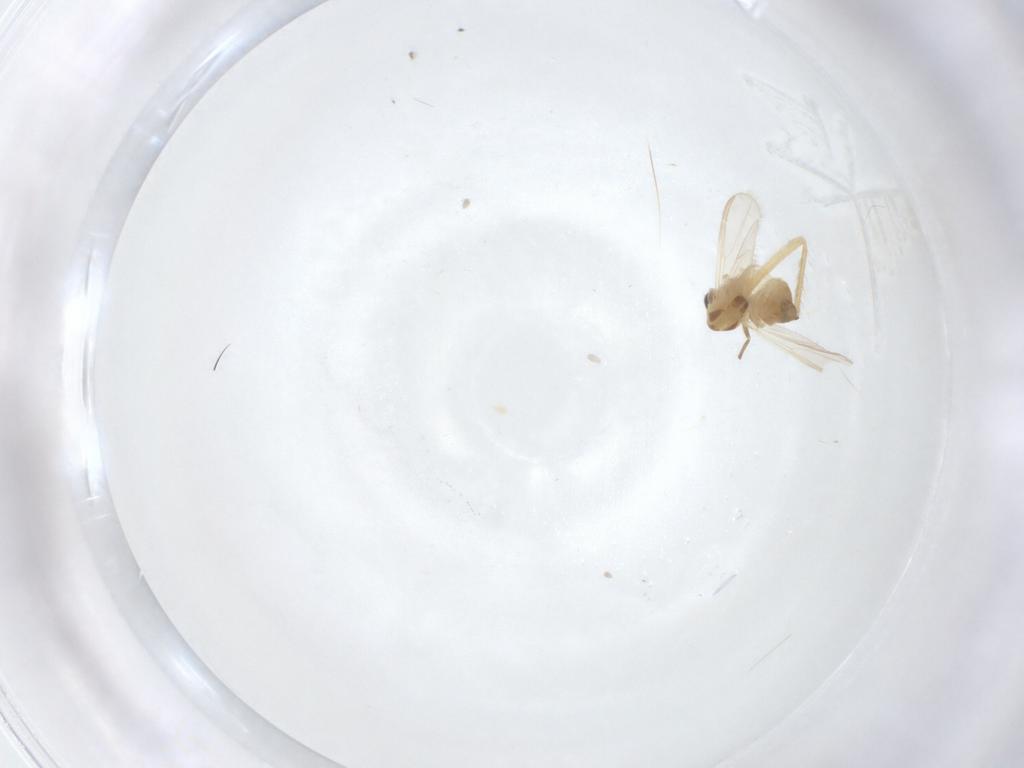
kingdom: Animalia
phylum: Arthropoda
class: Insecta
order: Diptera
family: Chironomidae
